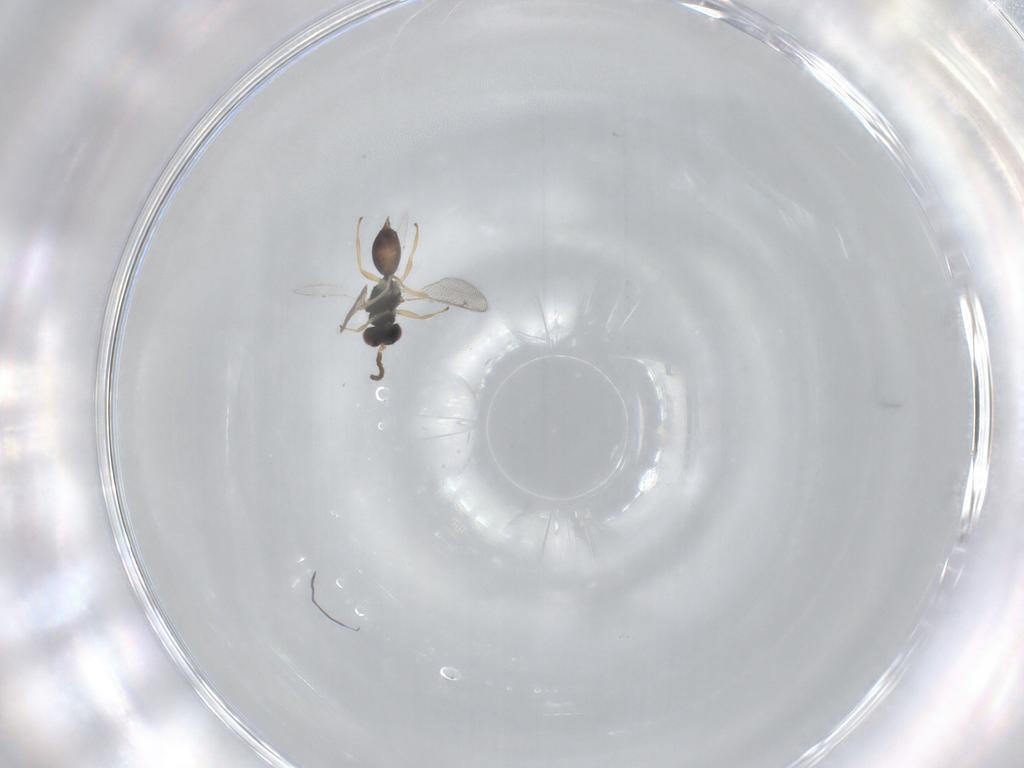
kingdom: Animalia
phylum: Arthropoda
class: Insecta
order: Hymenoptera
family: Eulophidae
